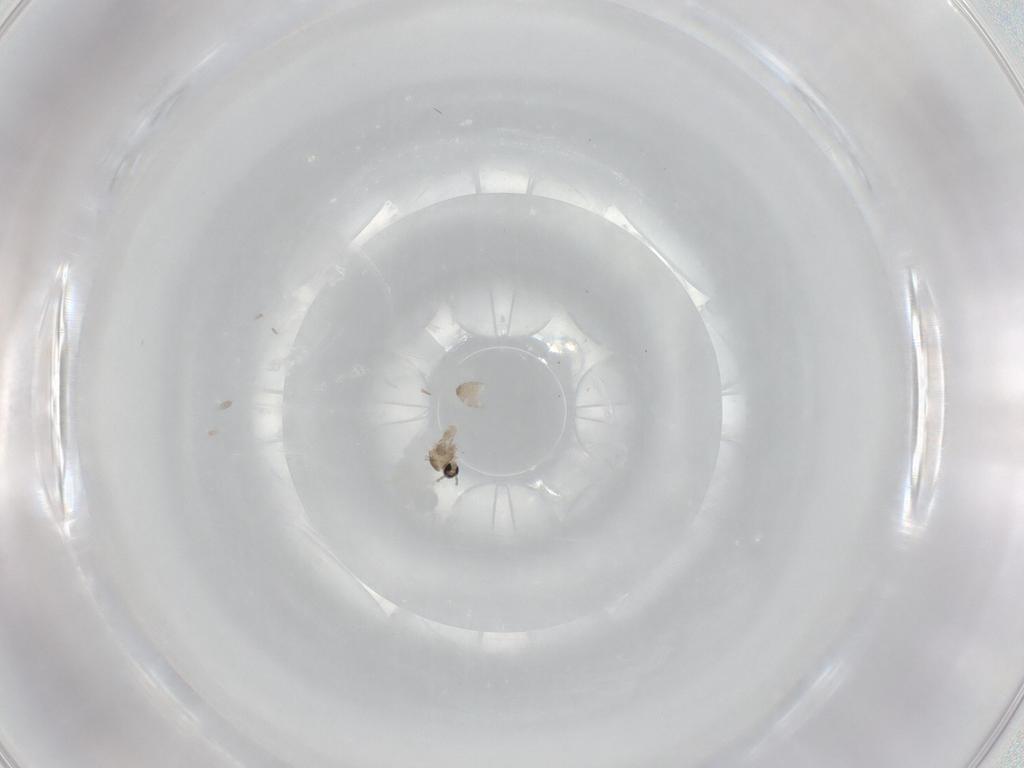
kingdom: Animalia
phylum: Arthropoda
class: Insecta
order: Diptera
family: Cecidomyiidae
